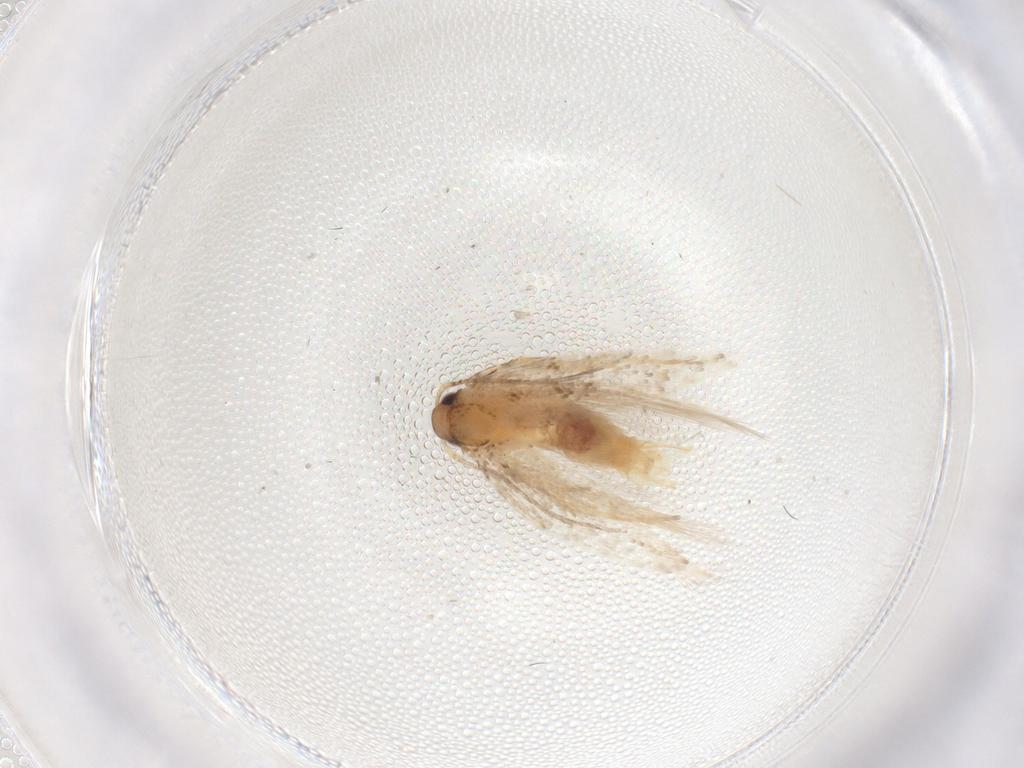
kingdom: Animalia
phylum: Arthropoda
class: Insecta
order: Lepidoptera
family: Gelechiidae
